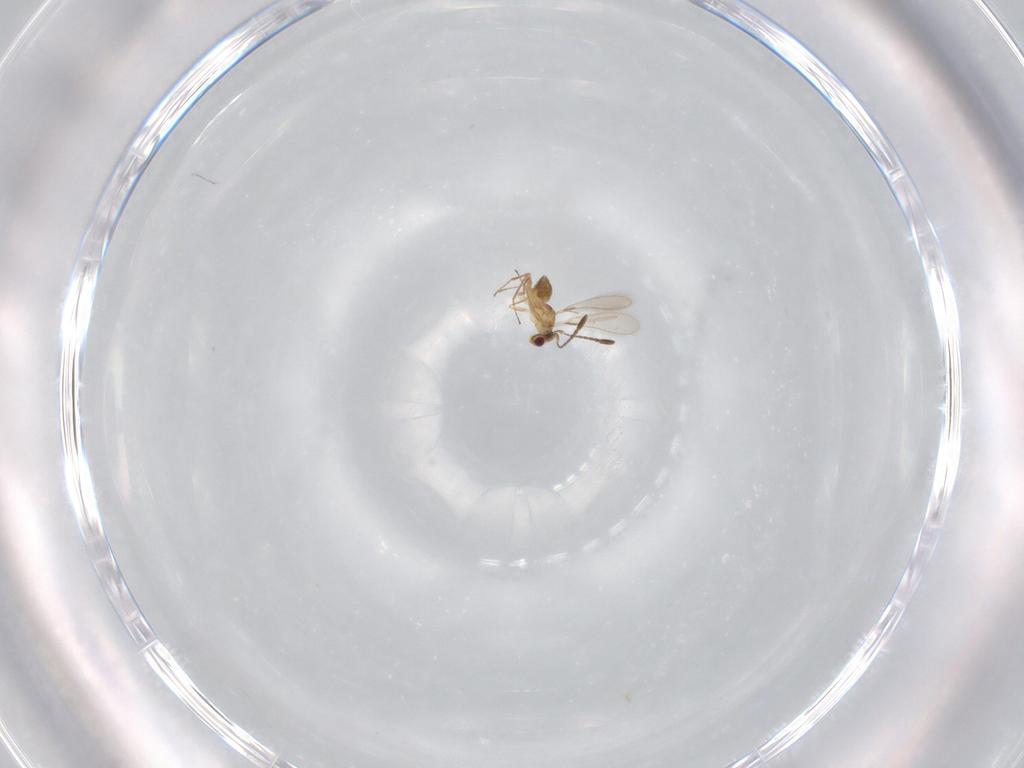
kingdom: Animalia
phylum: Arthropoda
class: Insecta
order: Hymenoptera
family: Mymaridae
